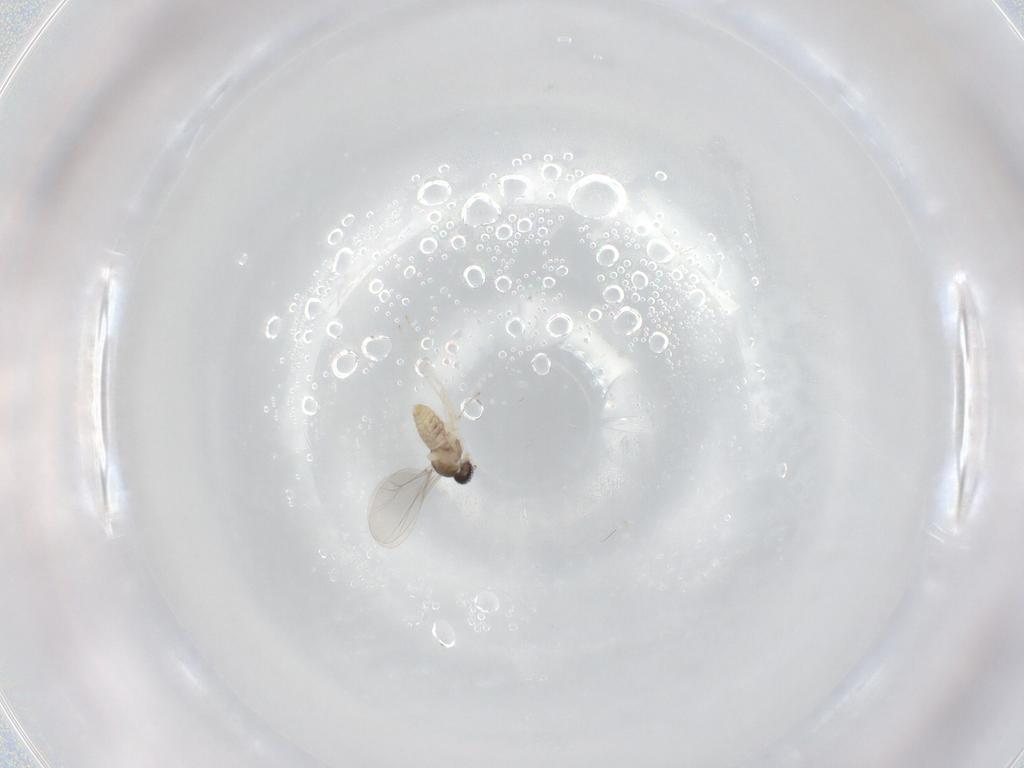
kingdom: Animalia
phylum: Arthropoda
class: Insecta
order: Diptera
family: Cecidomyiidae
